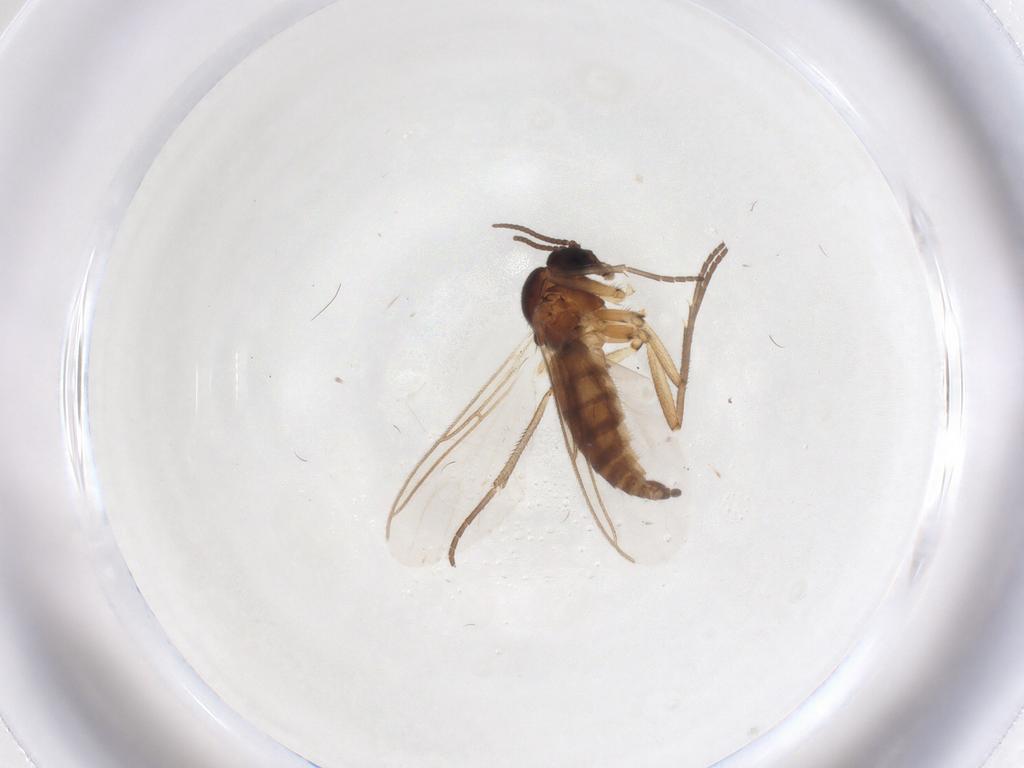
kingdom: Animalia
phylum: Arthropoda
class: Insecta
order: Diptera
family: Sciaridae
